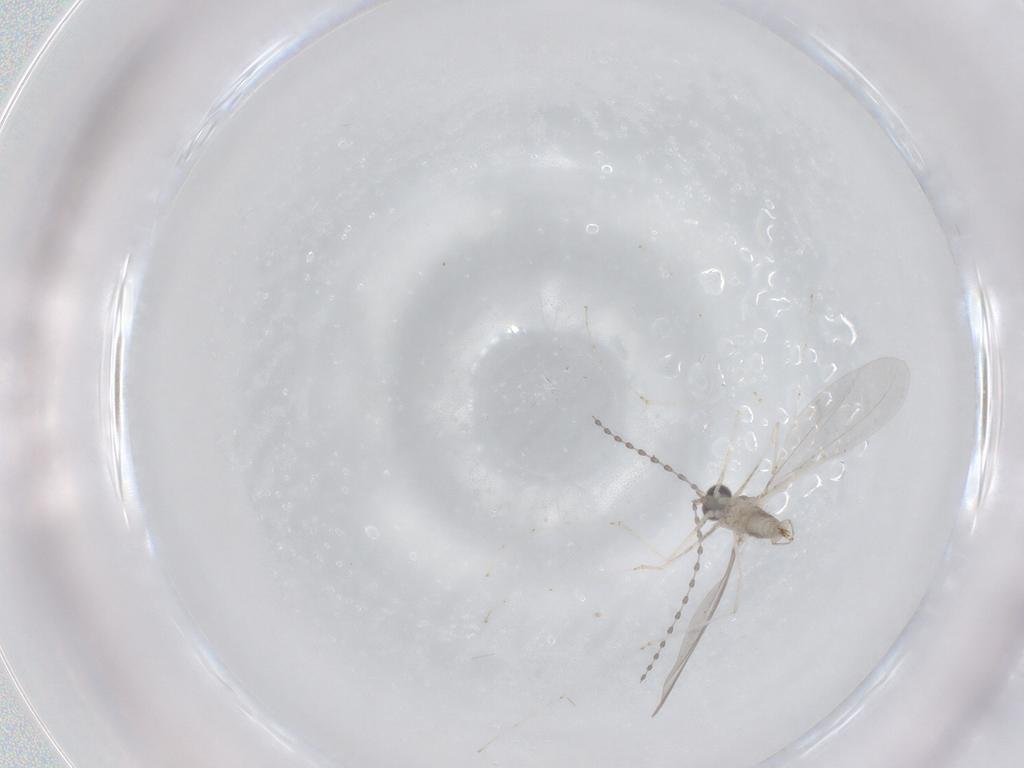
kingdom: Animalia
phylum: Arthropoda
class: Insecta
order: Diptera
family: Cecidomyiidae
